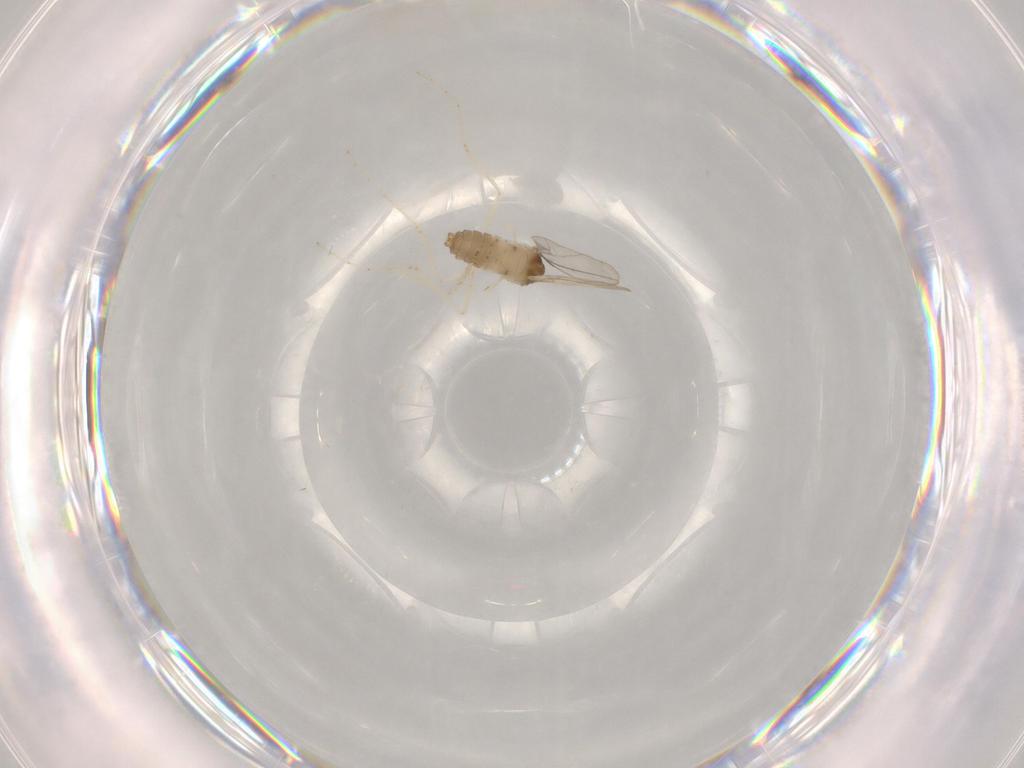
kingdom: Animalia
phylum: Arthropoda
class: Insecta
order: Diptera
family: Cecidomyiidae
